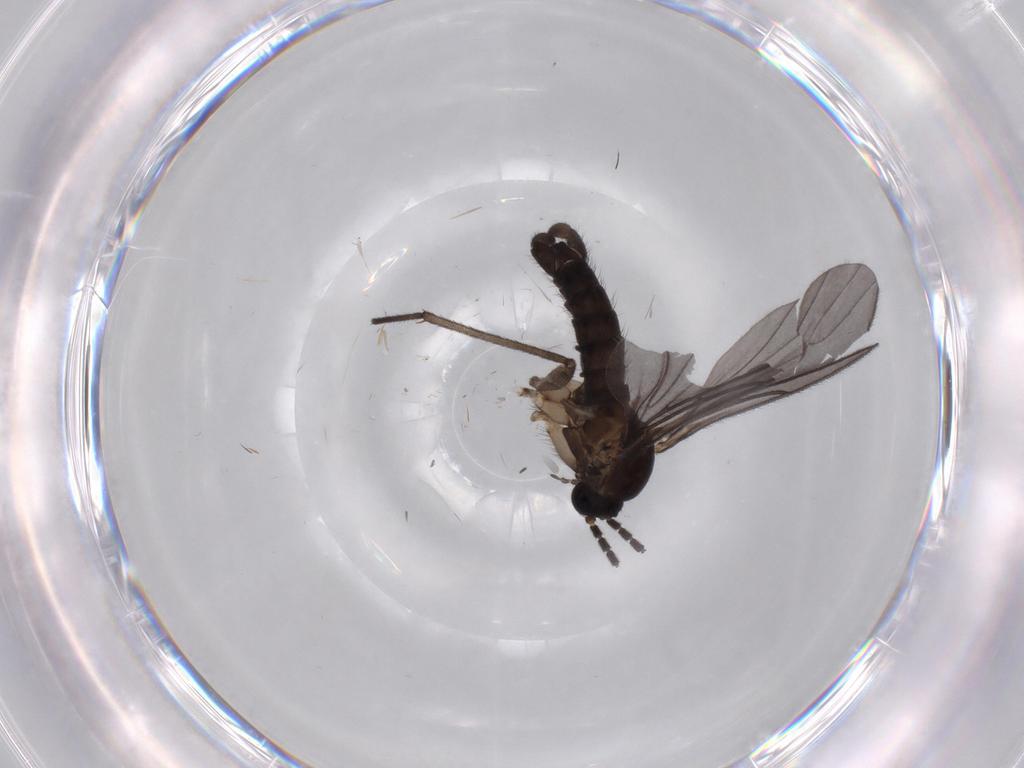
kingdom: Animalia
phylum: Arthropoda
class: Insecta
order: Diptera
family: Sciaridae
